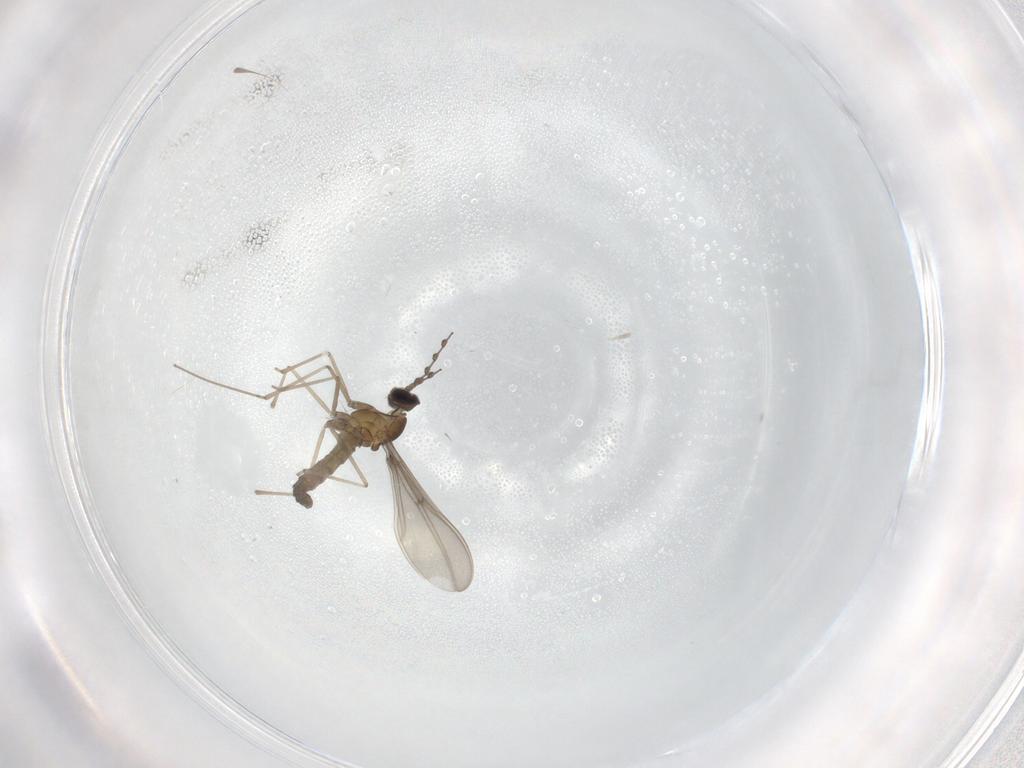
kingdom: Animalia
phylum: Arthropoda
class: Insecta
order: Diptera
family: Cecidomyiidae
